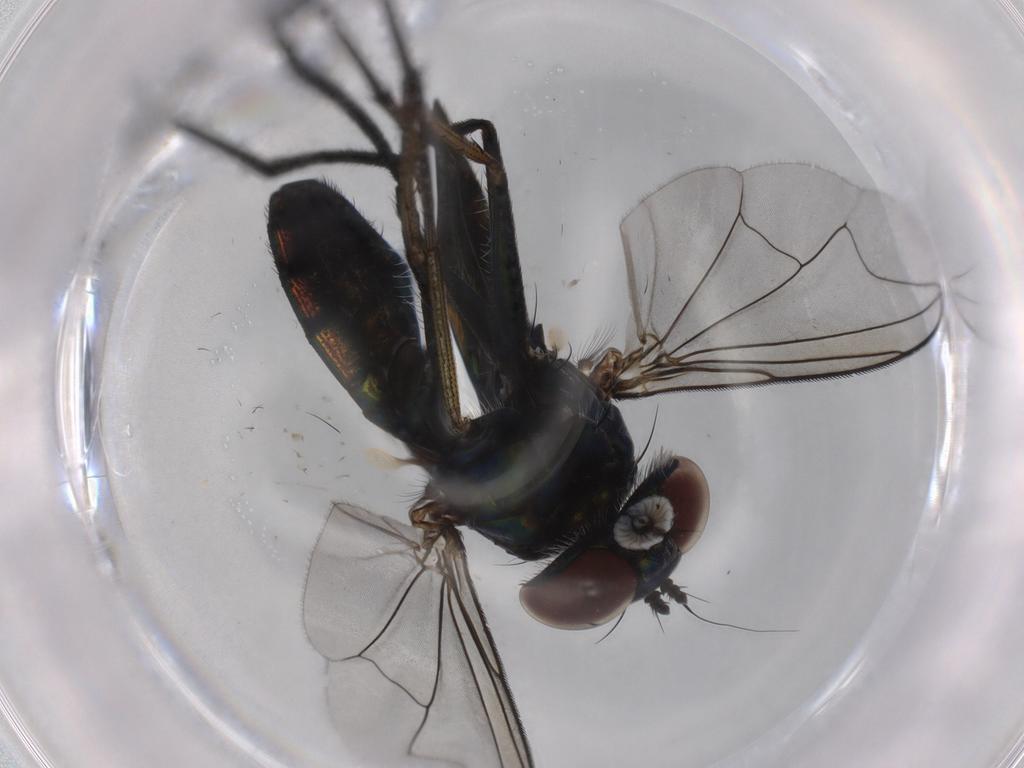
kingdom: Animalia
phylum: Arthropoda
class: Insecta
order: Diptera
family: Dolichopodidae
